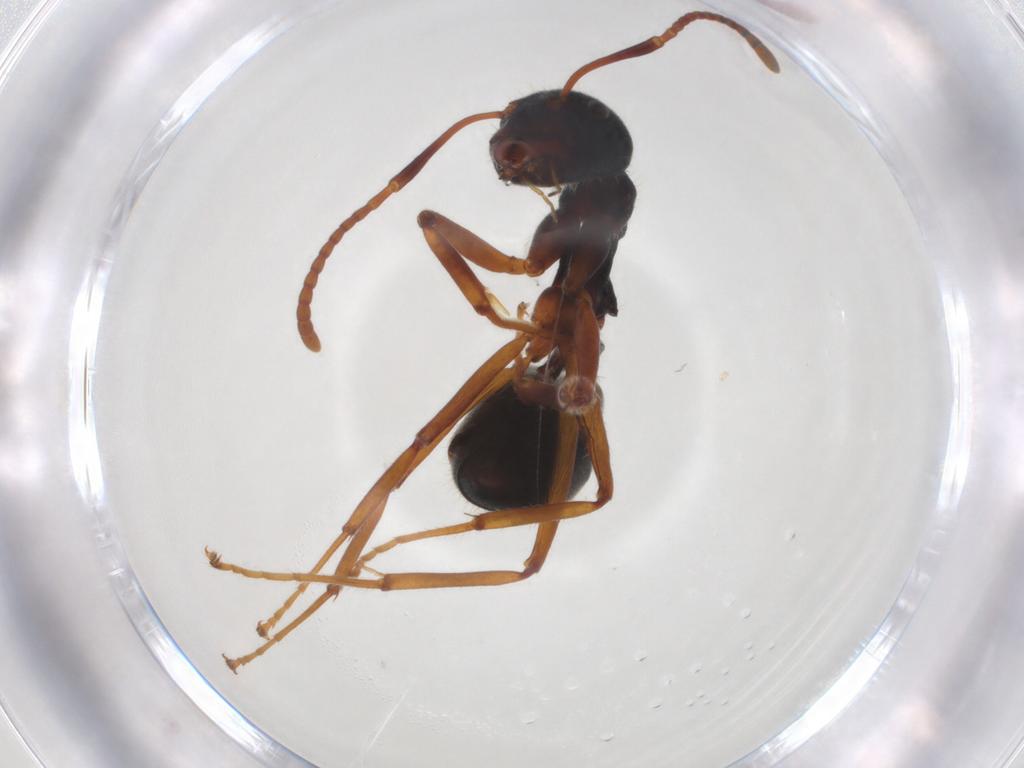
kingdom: Animalia
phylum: Arthropoda
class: Insecta
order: Hymenoptera
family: Formicidae
